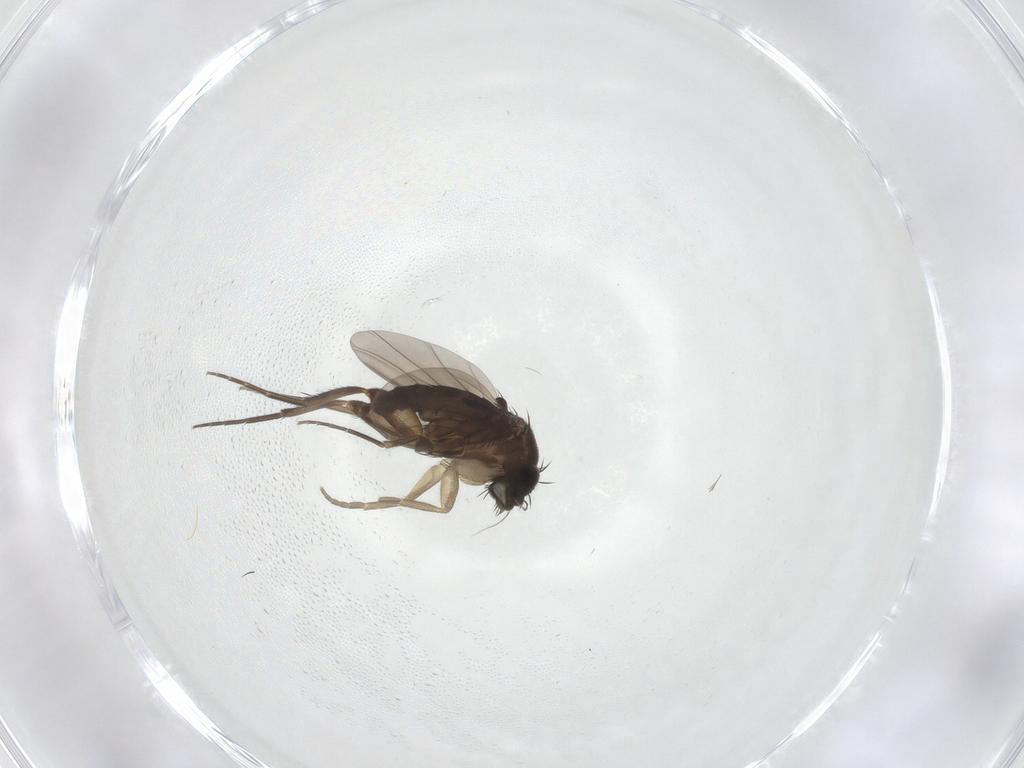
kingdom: Animalia
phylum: Arthropoda
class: Insecta
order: Diptera
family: Phoridae
